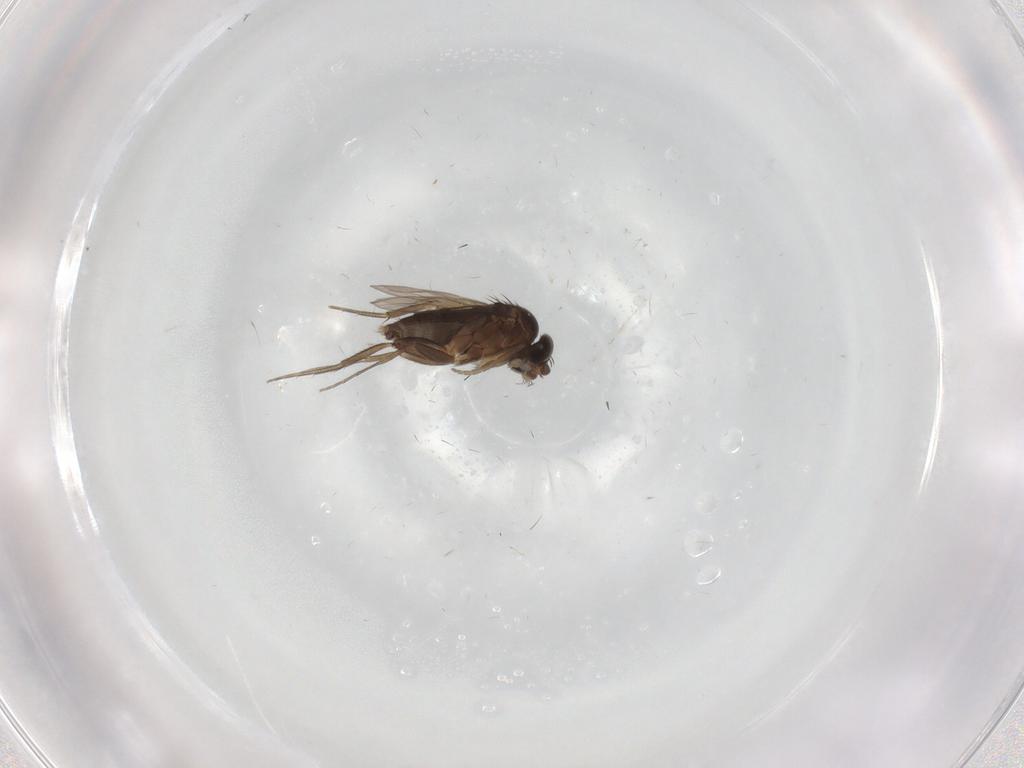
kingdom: Animalia
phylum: Arthropoda
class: Insecta
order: Diptera
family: Phoridae
